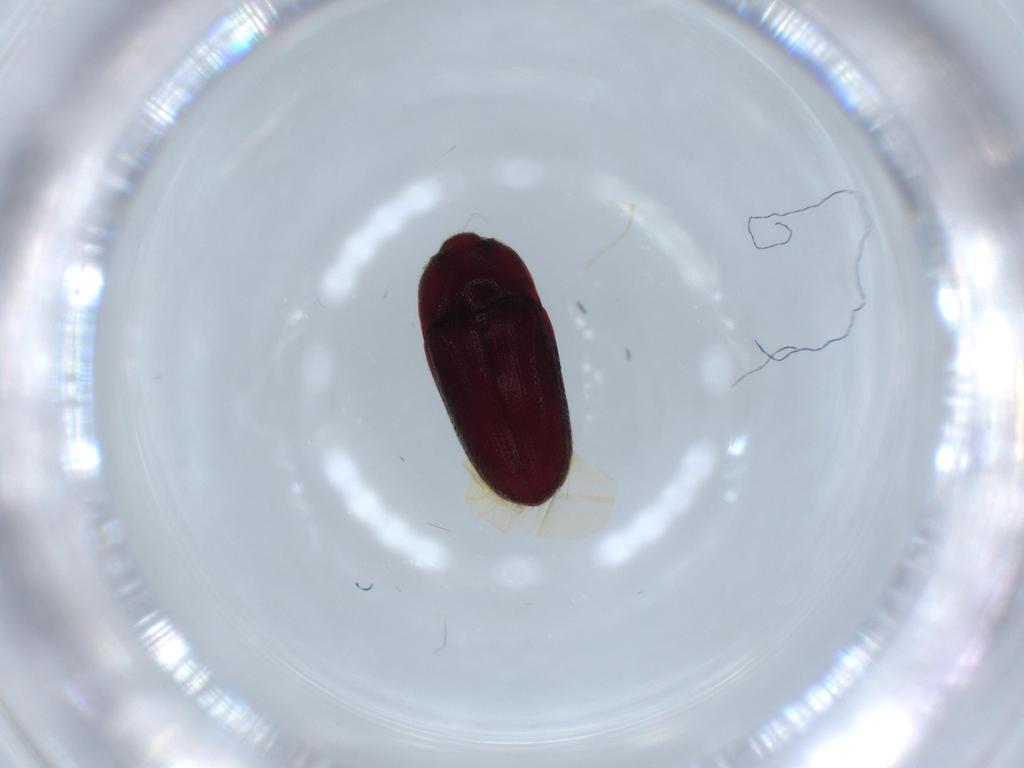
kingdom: Animalia
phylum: Arthropoda
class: Insecta
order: Coleoptera
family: Throscidae
